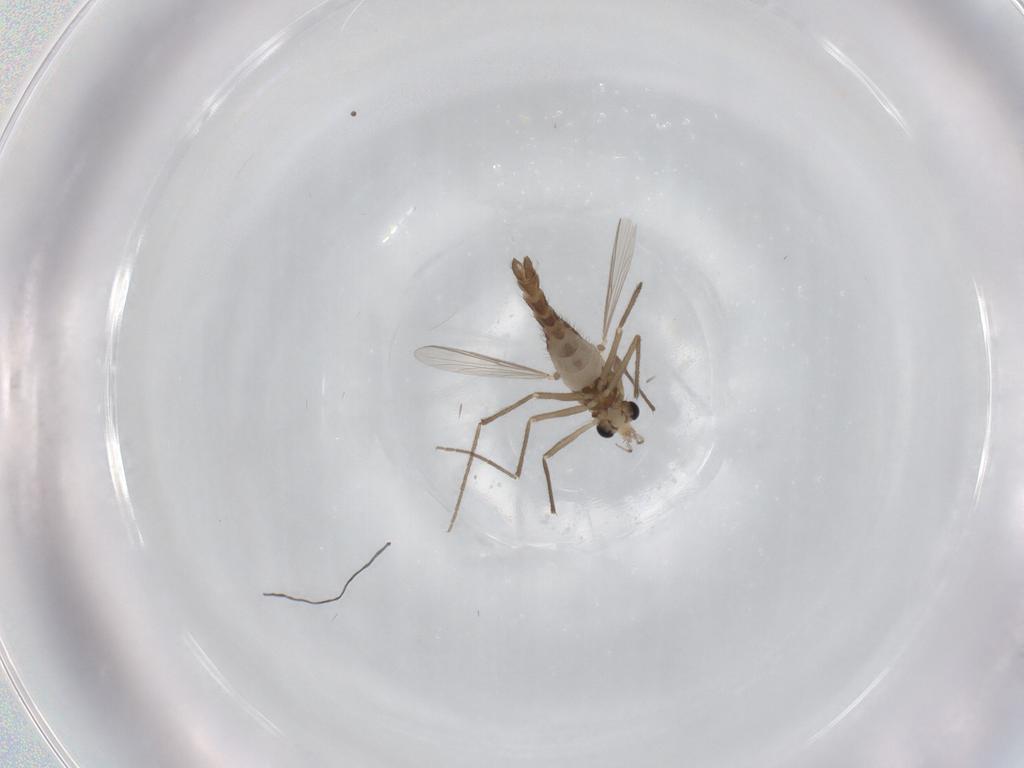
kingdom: Animalia
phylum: Arthropoda
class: Insecta
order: Diptera
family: Chironomidae
